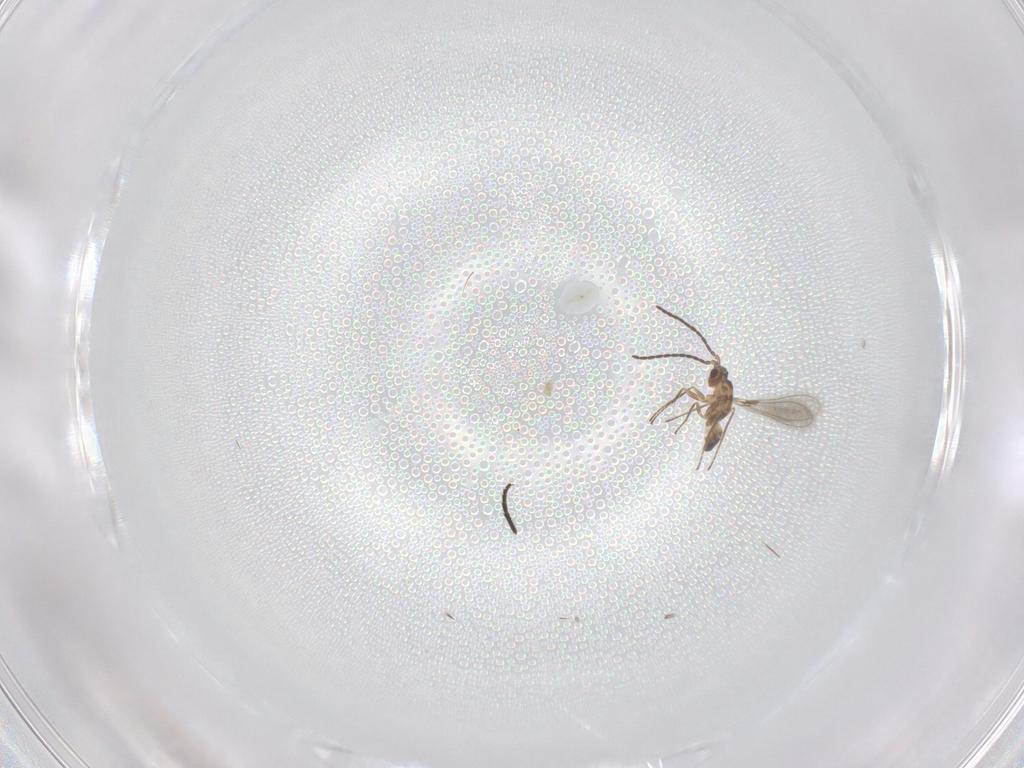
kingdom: Animalia
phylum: Arthropoda
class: Insecta
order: Hymenoptera
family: Mymaridae
